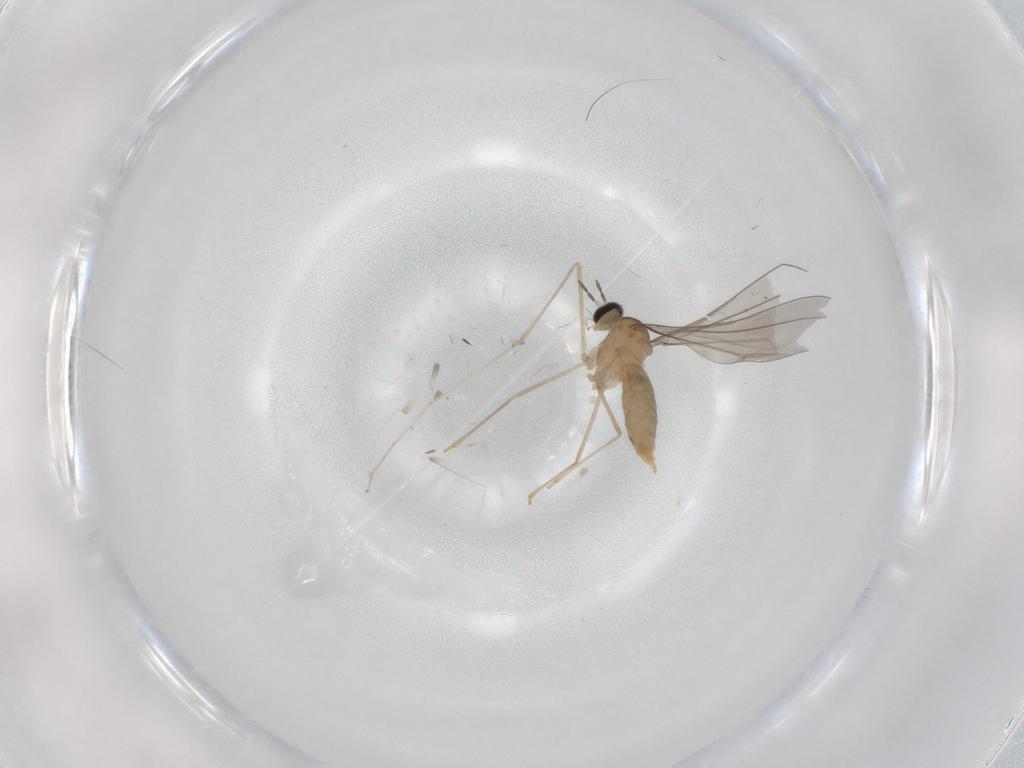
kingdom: Animalia
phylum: Arthropoda
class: Insecta
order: Diptera
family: Cecidomyiidae
